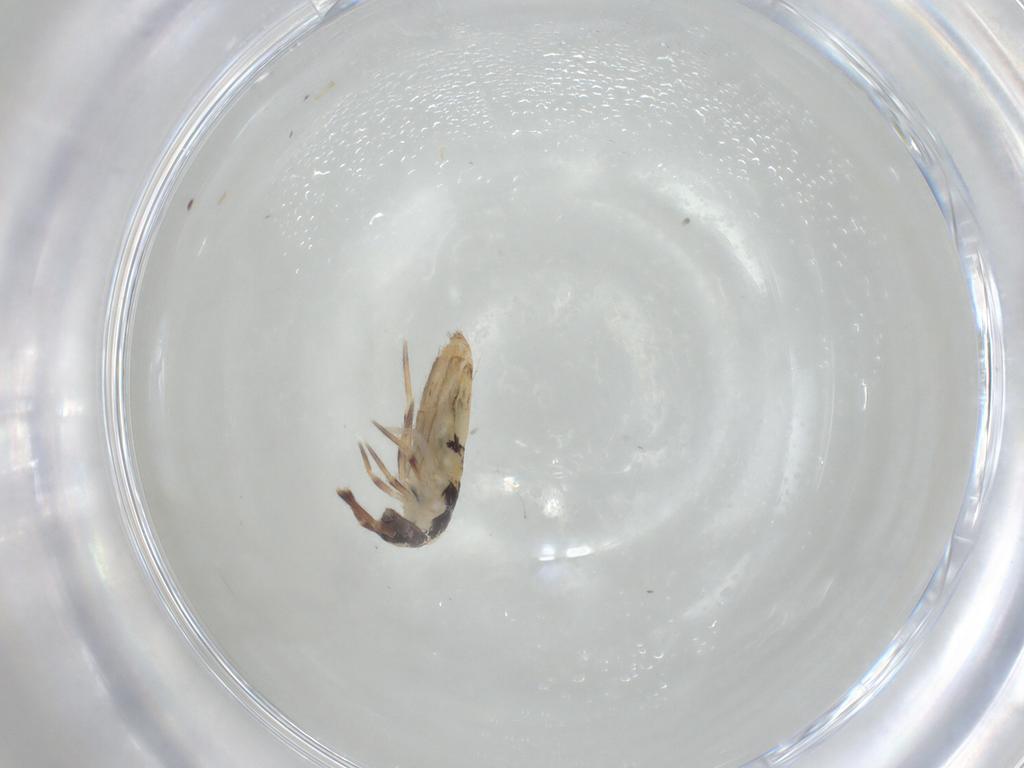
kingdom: Animalia
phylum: Arthropoda
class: Collembola
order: Entomobryomorpha
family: Entomobryidae
